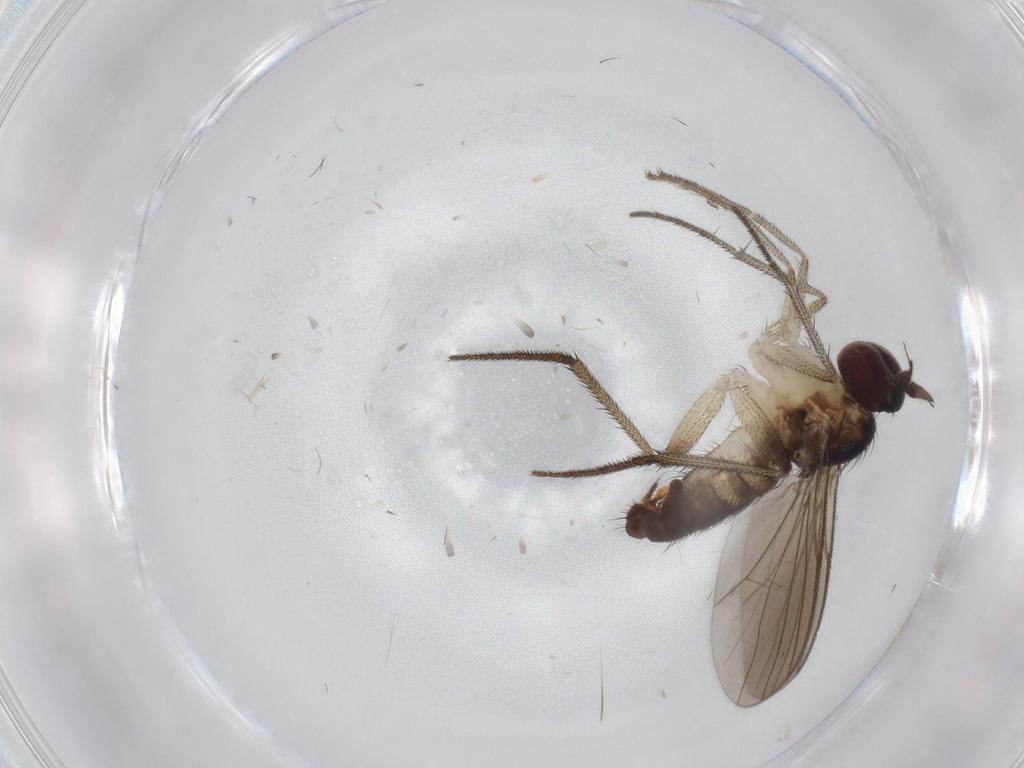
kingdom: Animalia
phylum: Arthropoda
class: Insecta
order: Diptera
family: Dolichopodidae
